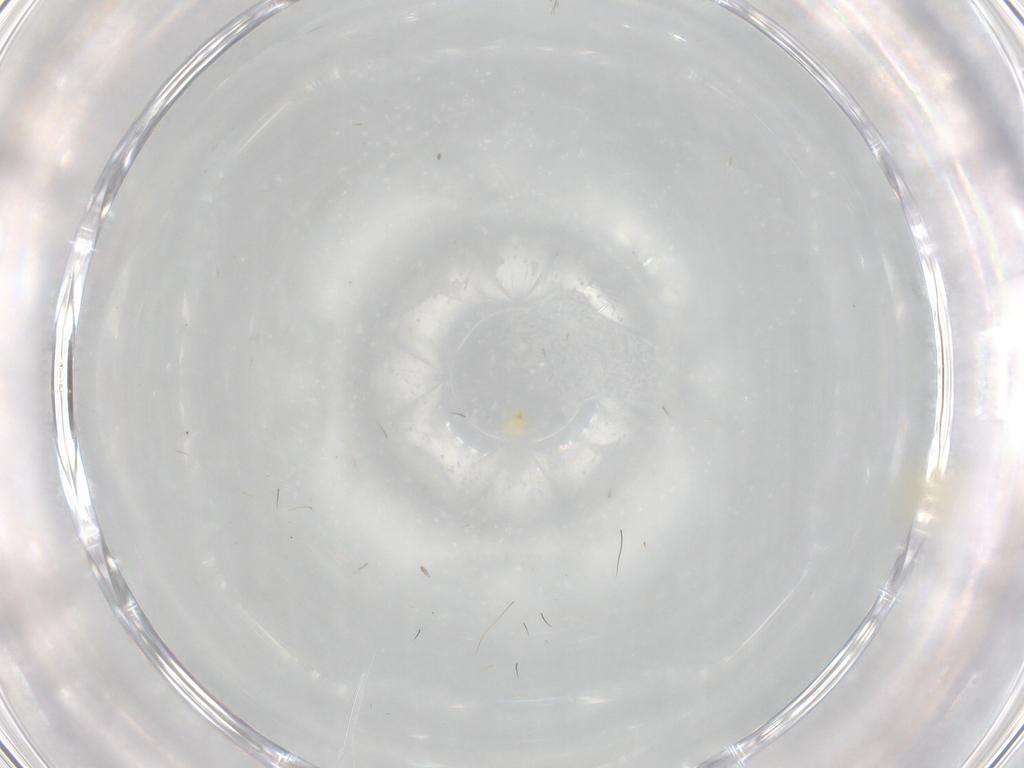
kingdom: Animalia
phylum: Arthropoda
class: Insecta
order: Hemiptera
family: Aleyrodidae
